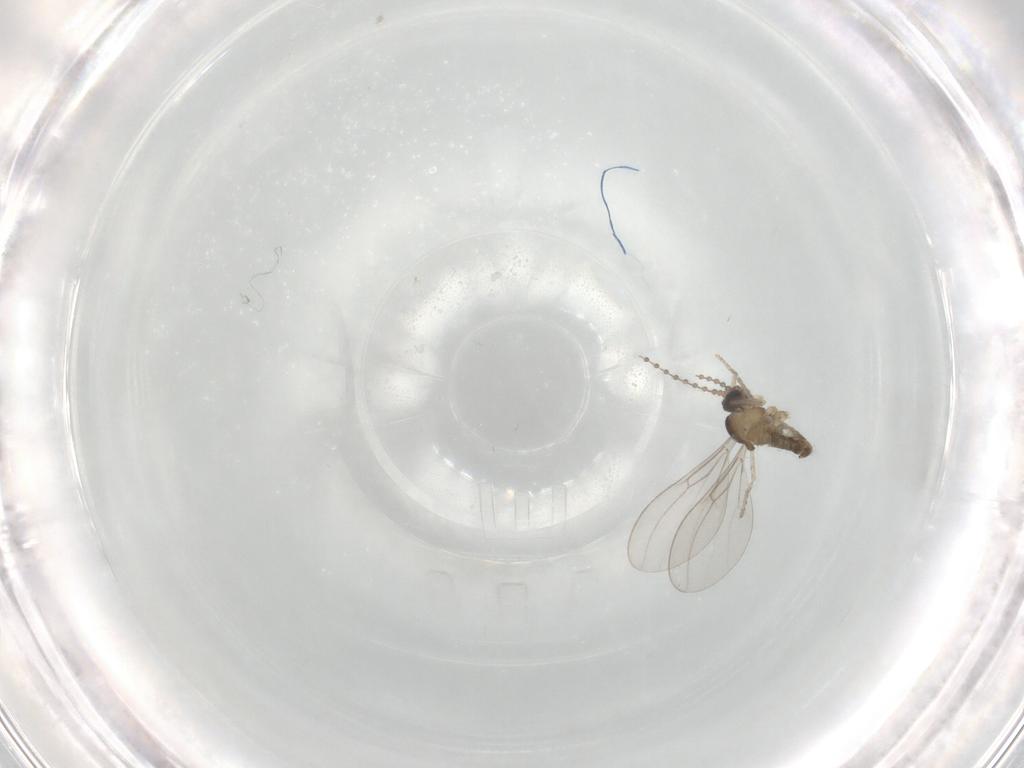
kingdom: Animalia
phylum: Arthropoda
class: Insecta
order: Diptera
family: Cecidomyiidae
